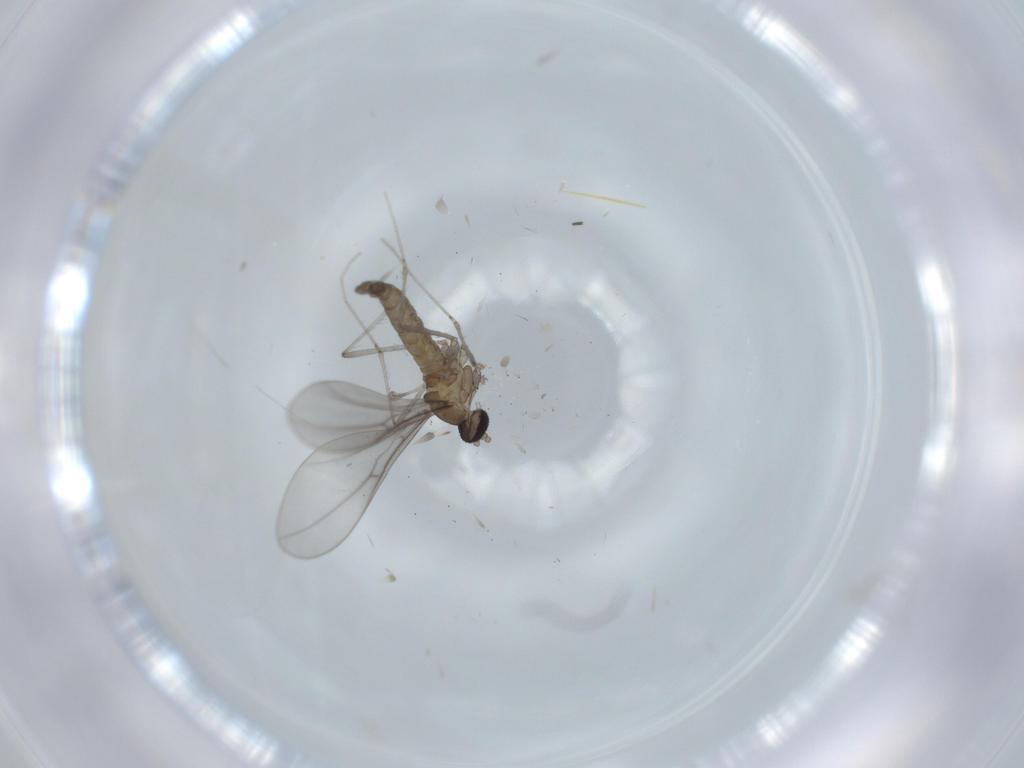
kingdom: Animalia
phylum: Arthropoda
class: Insecta
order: Diptera
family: Cecidomyiidae
